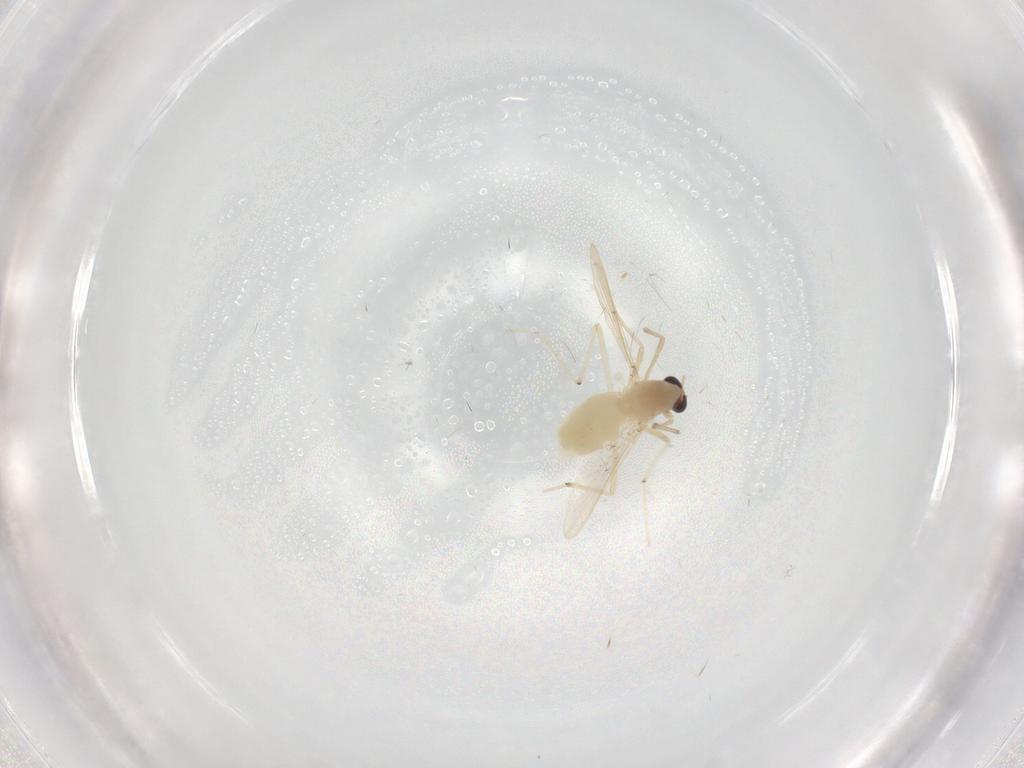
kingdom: Animalia
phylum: Arthropoda
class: Insecta
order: Diptera
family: Chironomidae
